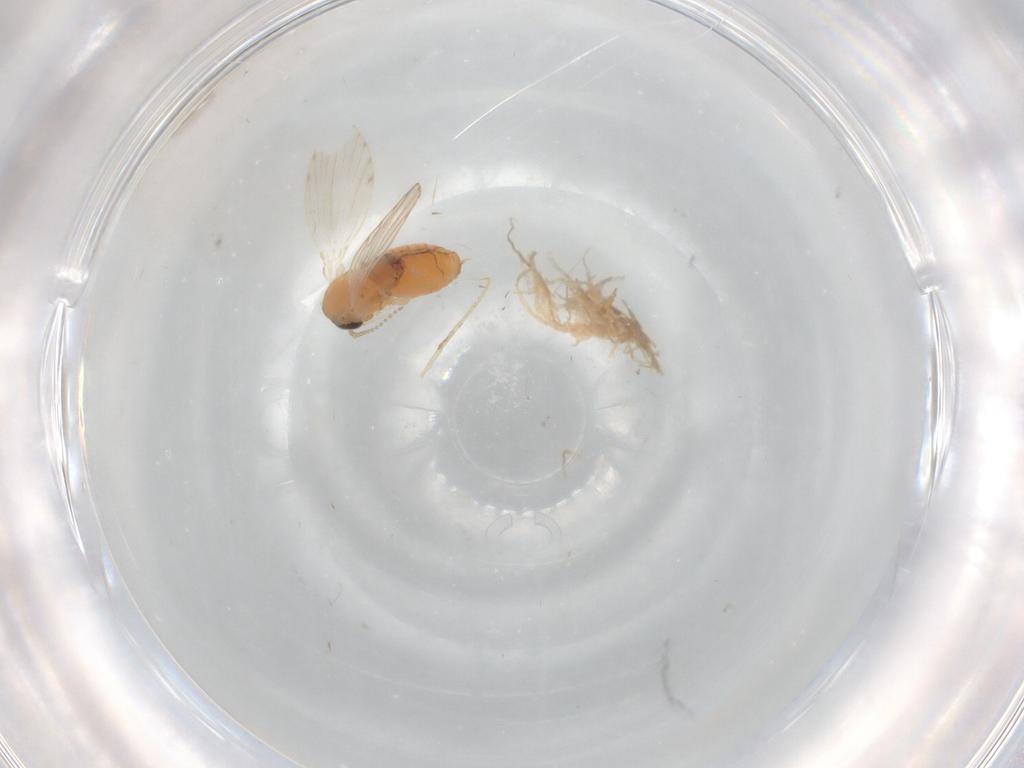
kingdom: Animalia
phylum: Arthropoda
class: Insecta
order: Diptera
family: Psychodidae
